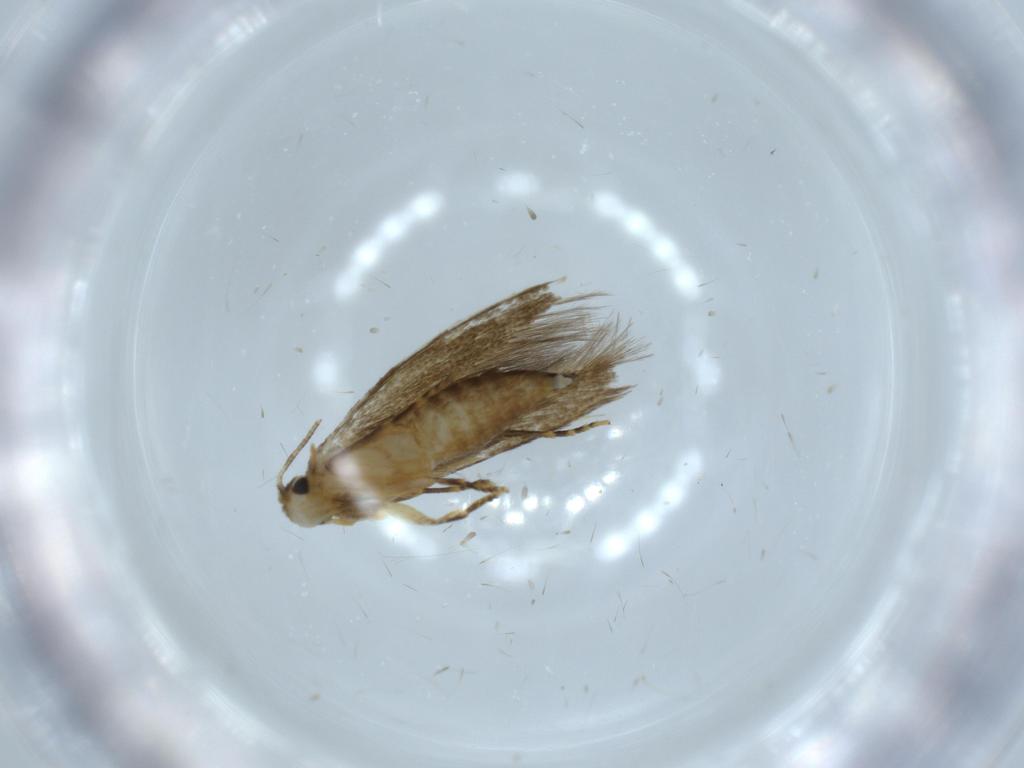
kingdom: Animalia
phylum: Arthropoda
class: Insecta
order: Lepidoptera
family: Tineidae
